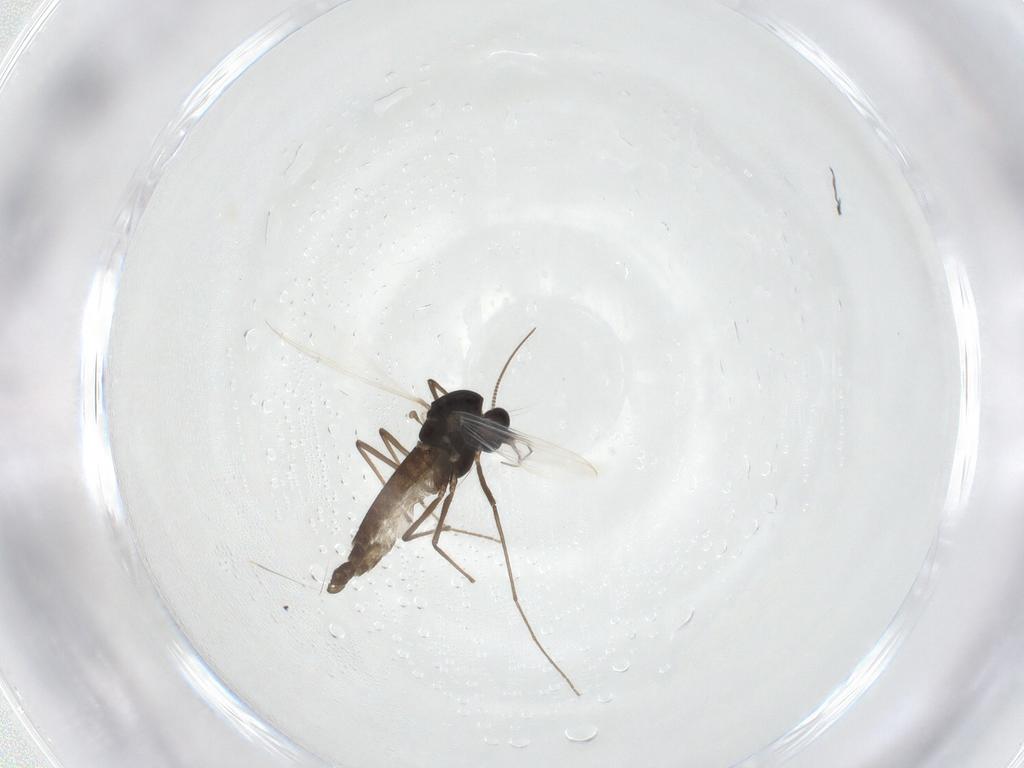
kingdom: Animalia
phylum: Arthropoda
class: Insecta
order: Diptera
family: Chironomidae
